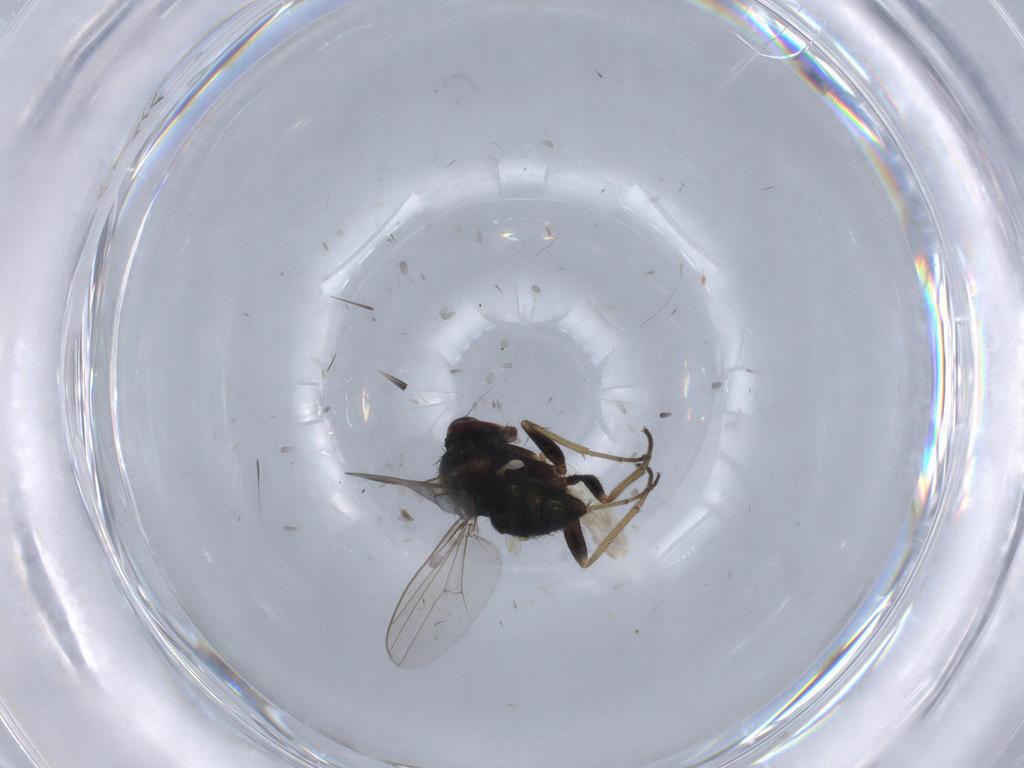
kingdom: Animalia
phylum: Arthropoda
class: Insecta
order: Diptera
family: Dolichopodidae
